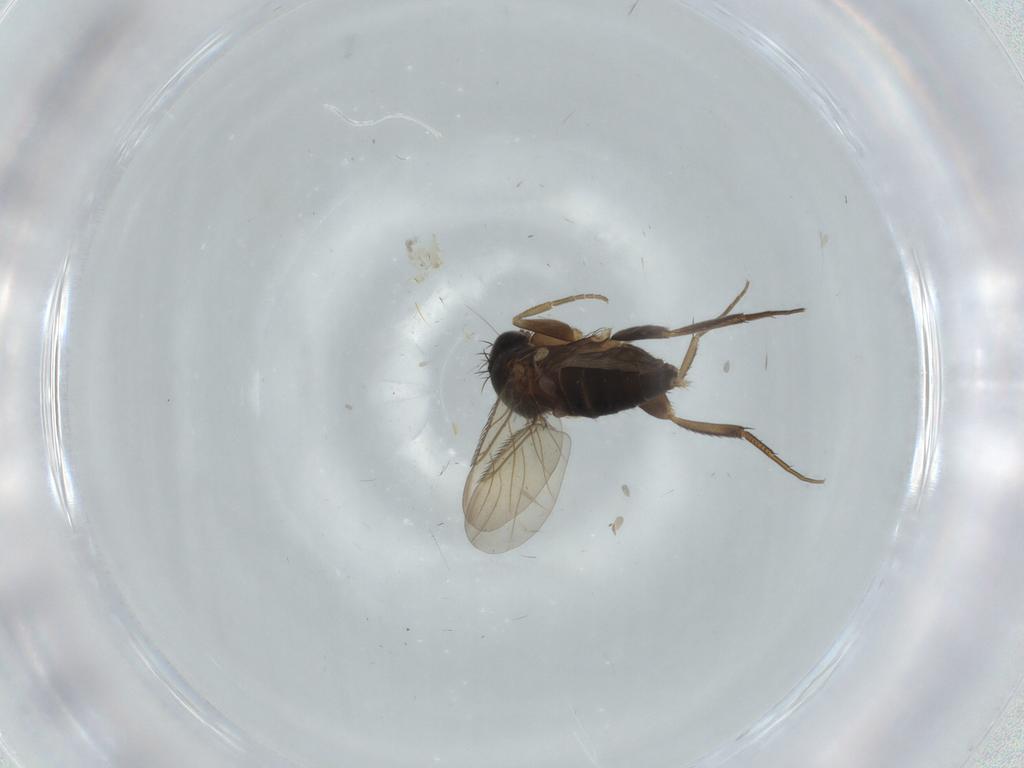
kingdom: Animalia
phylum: Arthropoda
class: Insecta
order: Diptera
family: Phoridae
